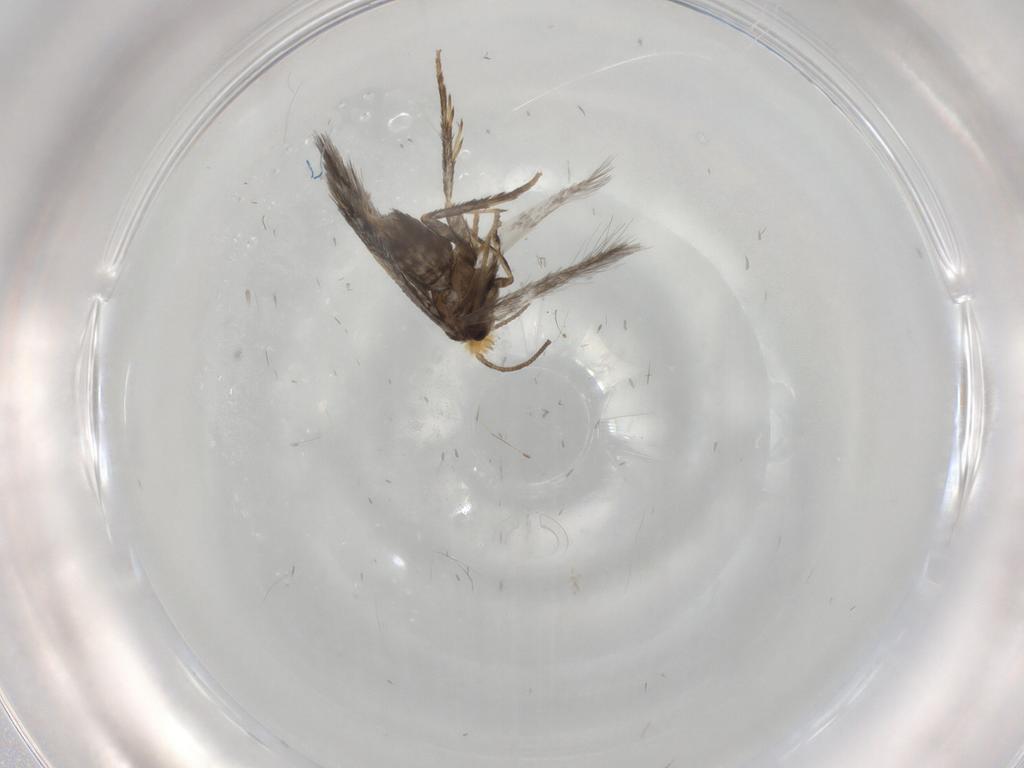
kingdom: Animalia
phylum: Arthropoda
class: Insecta
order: Lepidoptera
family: Nepticulidae
